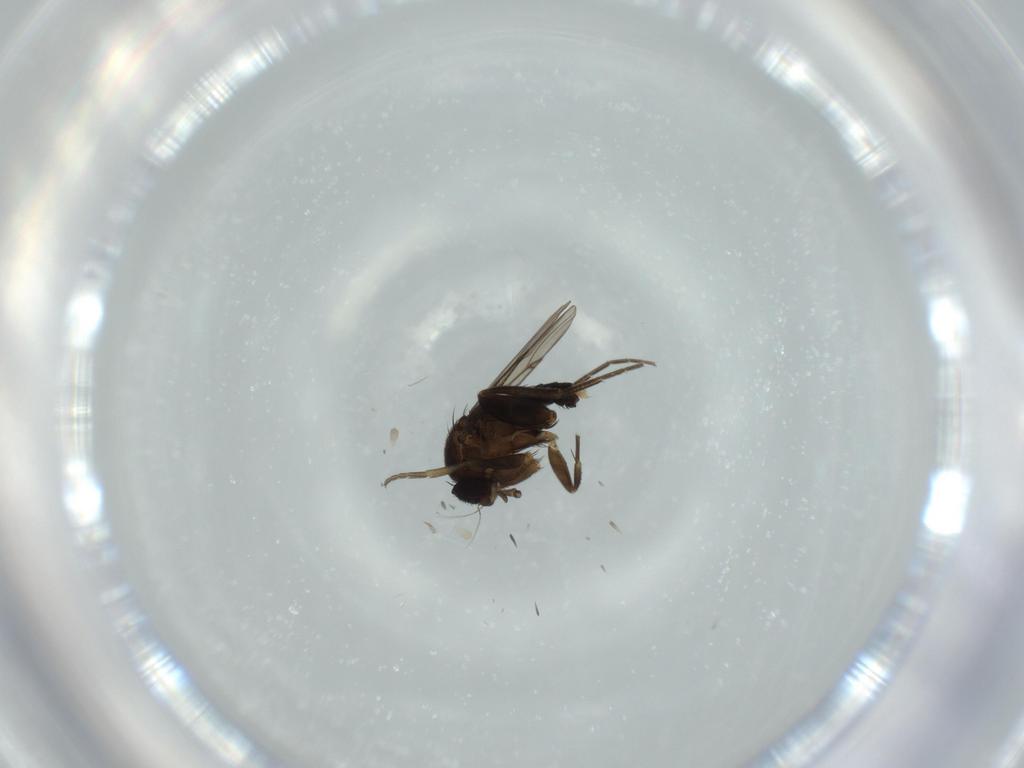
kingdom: Animalia
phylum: Arthropoda
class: Insecta
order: Diptera
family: Phoridae
